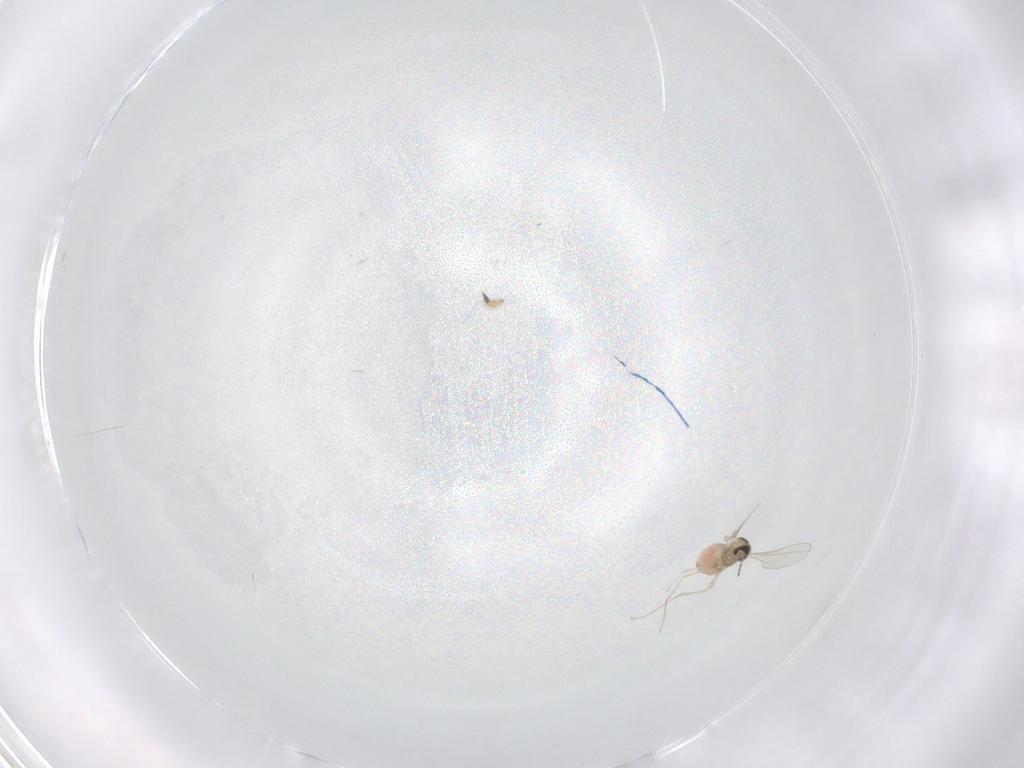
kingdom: Animalia
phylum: Arthropoda
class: Insecta
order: Diptera
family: Cecidomyiidae
